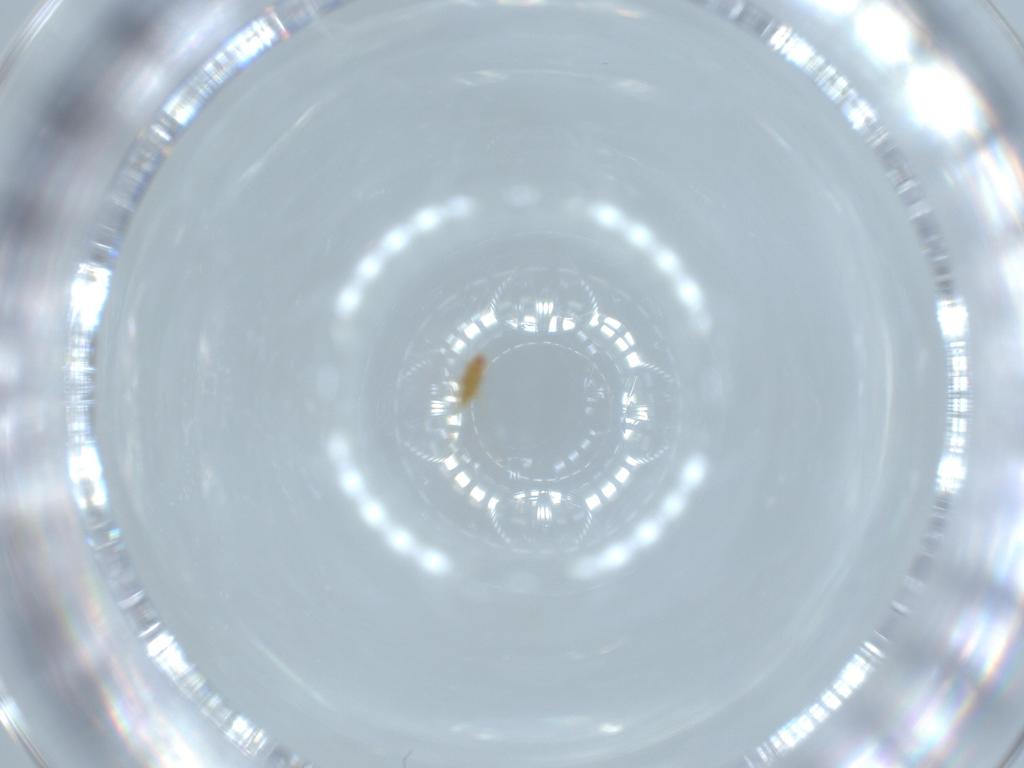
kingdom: Animalia
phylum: Arthropoda
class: Insecta
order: Diptera
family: Phoridae
